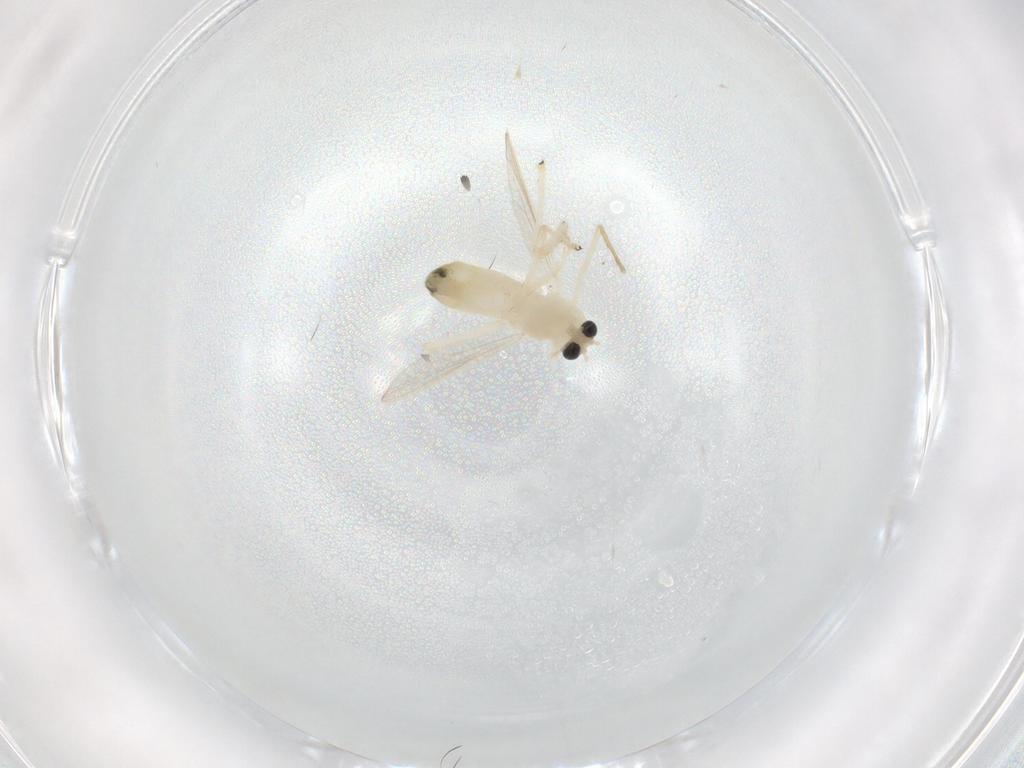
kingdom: Animalia
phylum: Arthropoda
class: Insecta
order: Diptera
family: Chironomidae
